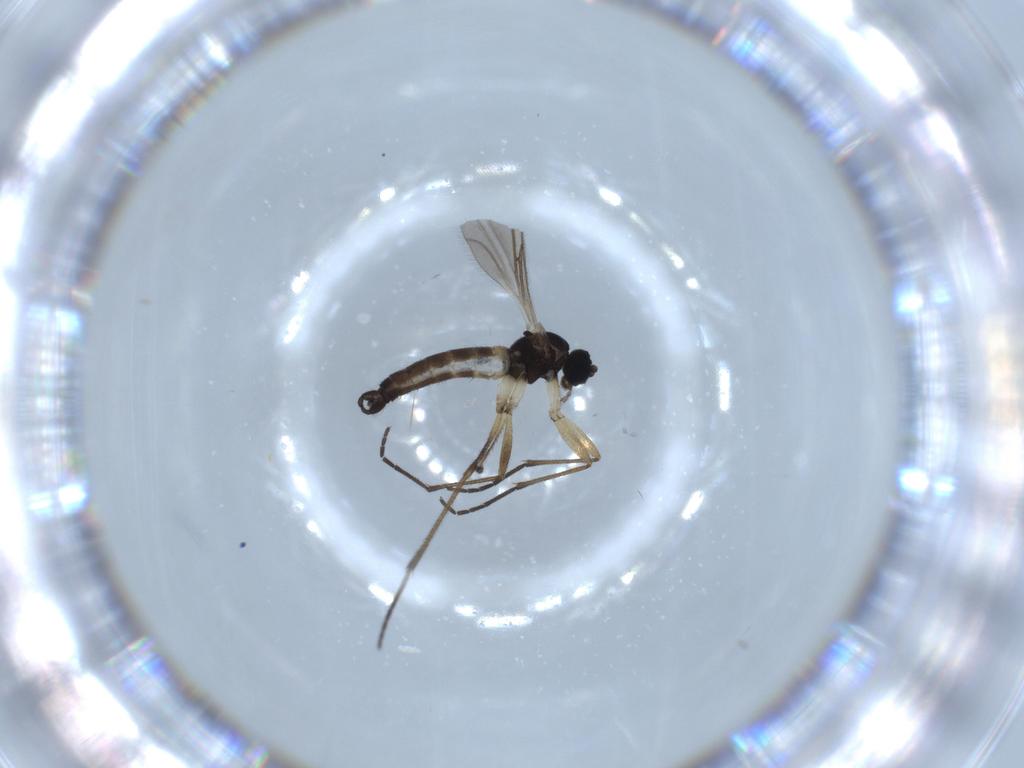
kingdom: Animalia
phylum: Arthropoda
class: Insecta
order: Diptera
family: Sciaridae
